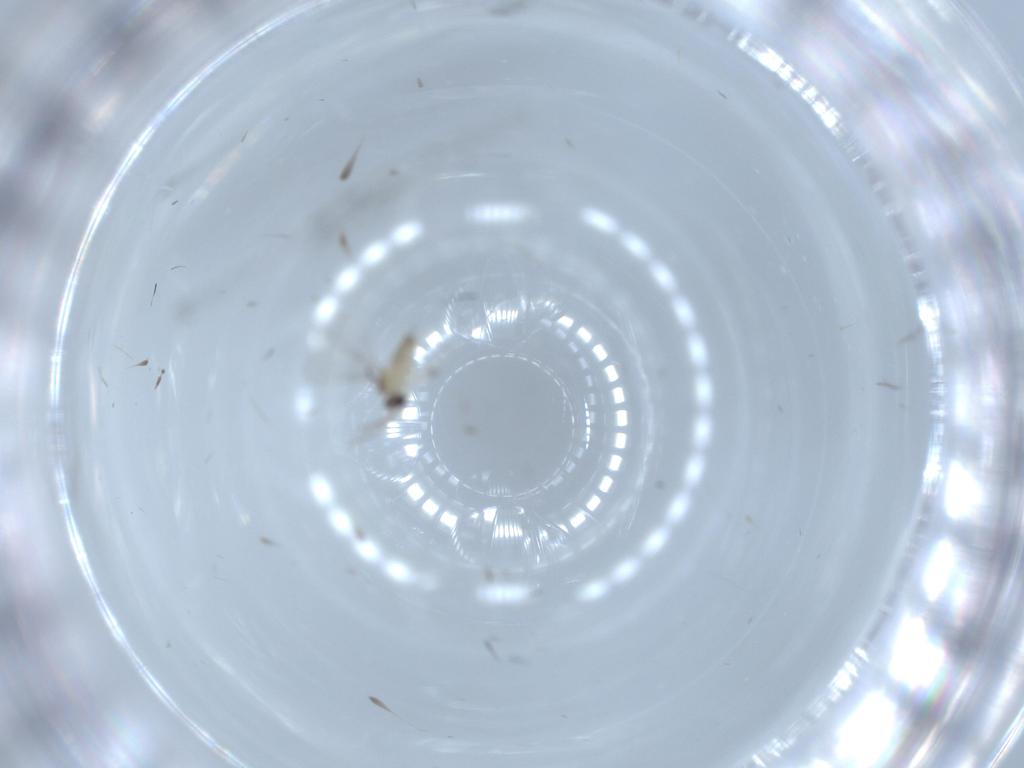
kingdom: Animalia
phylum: Arthropoda
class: Insecta
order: Diptera
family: Cecidomyiidae
